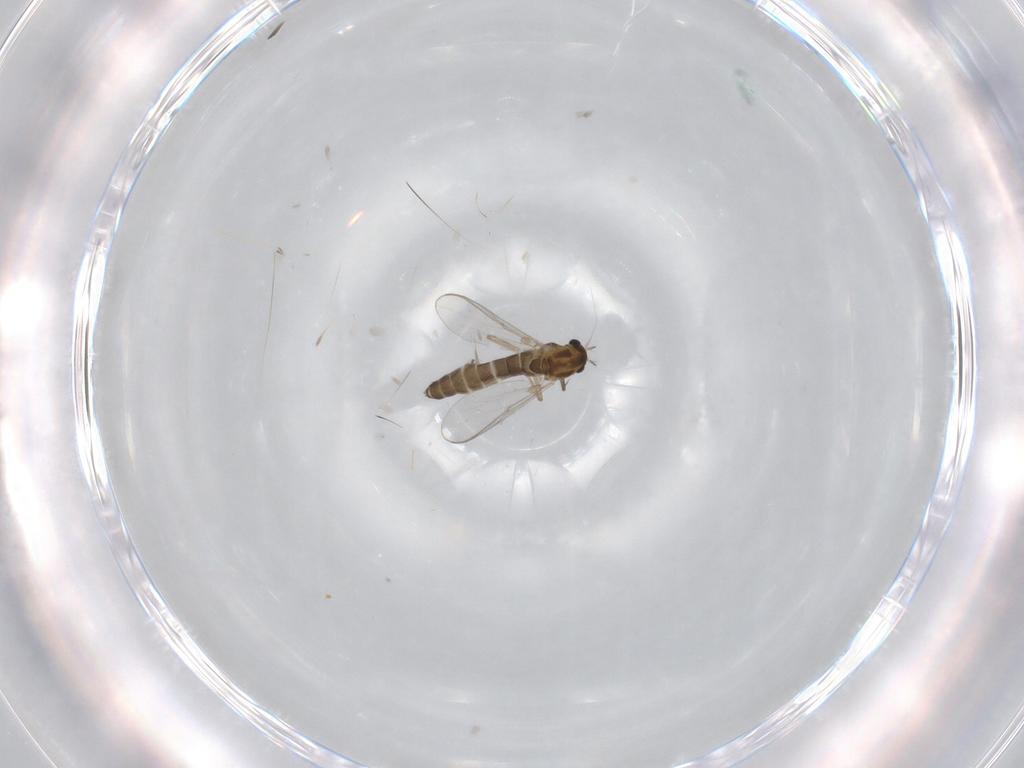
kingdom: Animalia
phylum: Arthropoda
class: Insecta
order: Diptera
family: Chironomidae
